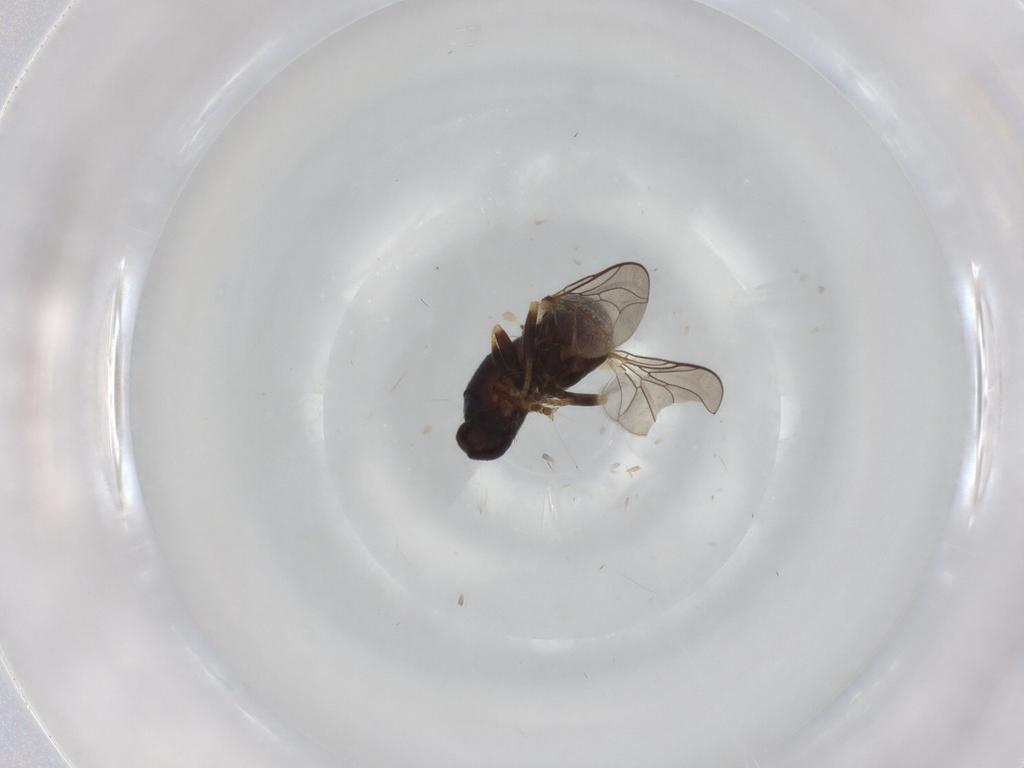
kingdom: Animalia
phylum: Arthropoda
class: Insecta
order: Diptera
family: Pipunculidae
